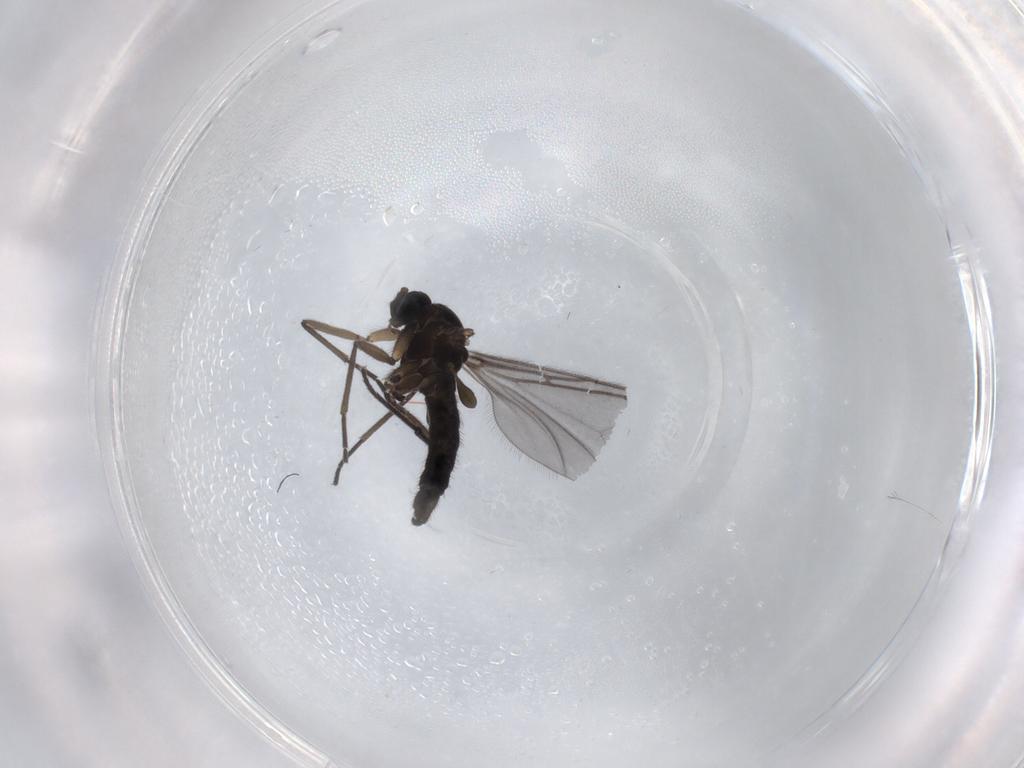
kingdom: Animalia
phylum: Arthropoda
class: Insecta
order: Diptera
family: Sciaridae
